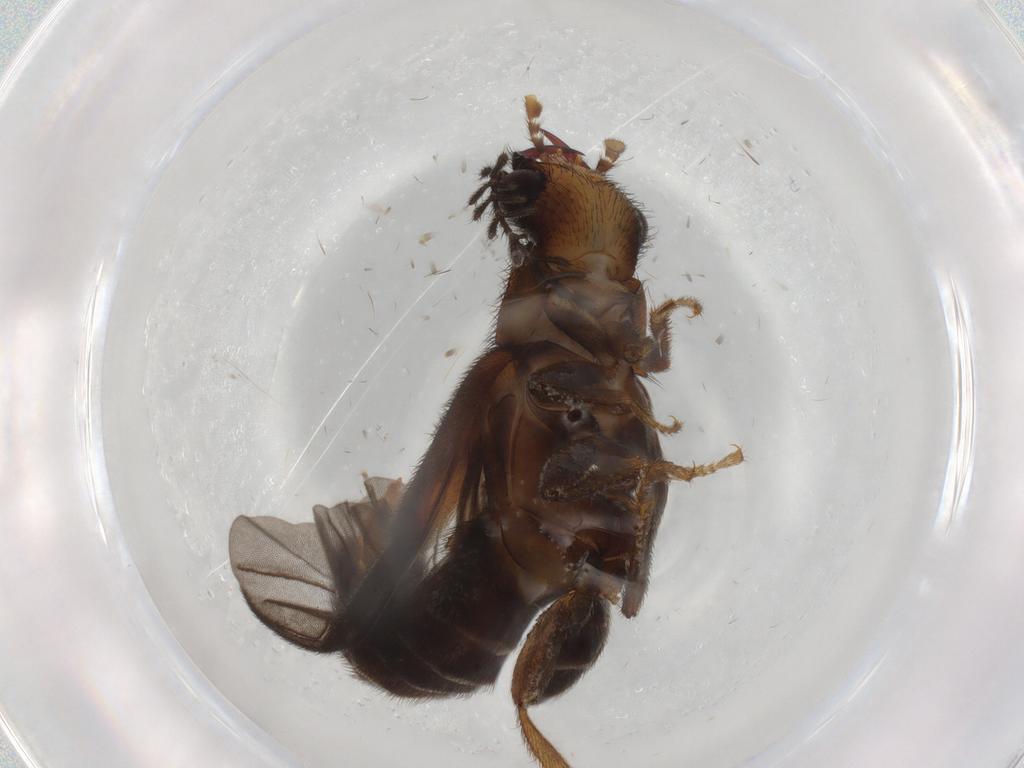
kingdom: Animalia
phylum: Arthropoda
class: Insecta
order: Coleoptera
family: Phengodidae
